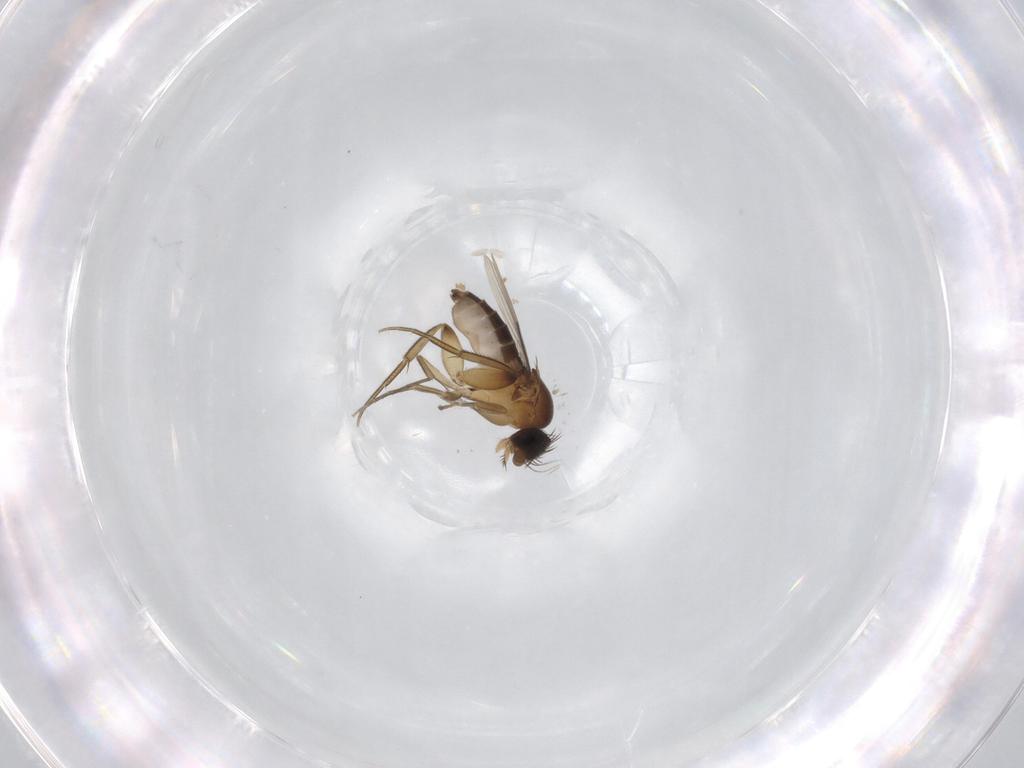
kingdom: Animalia
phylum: Arthropoda
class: Insecta
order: Diptera
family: Phoridae
